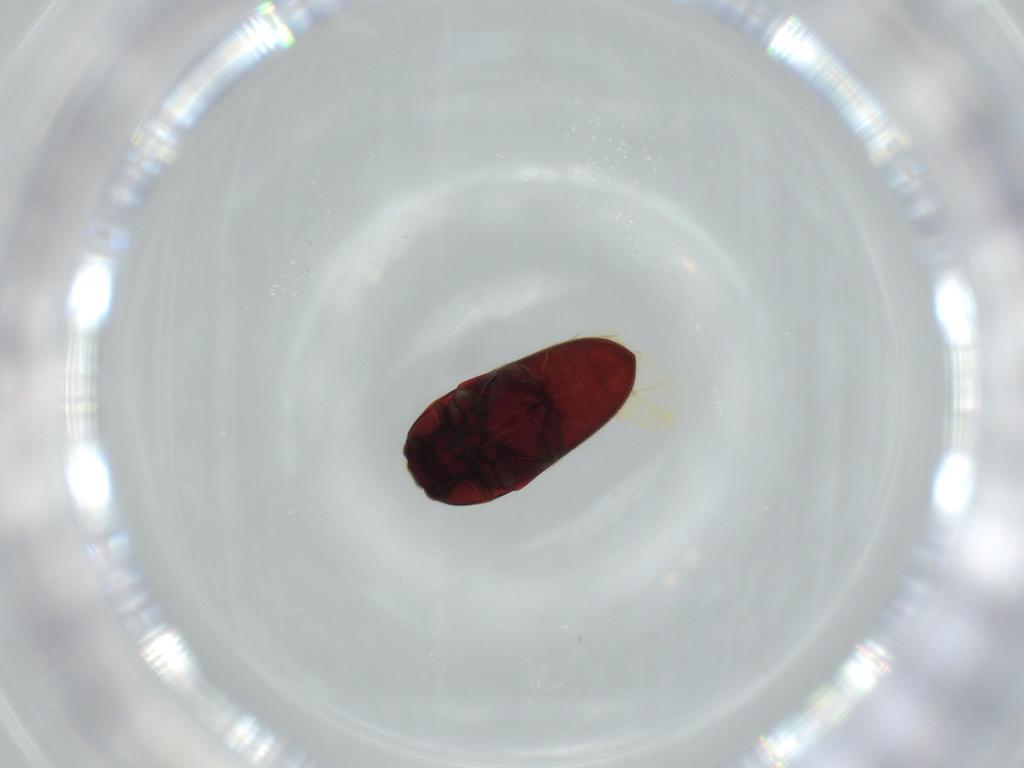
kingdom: Animalia
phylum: Arthropoda
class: Insecta
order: Coleoptera
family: Throscidae
